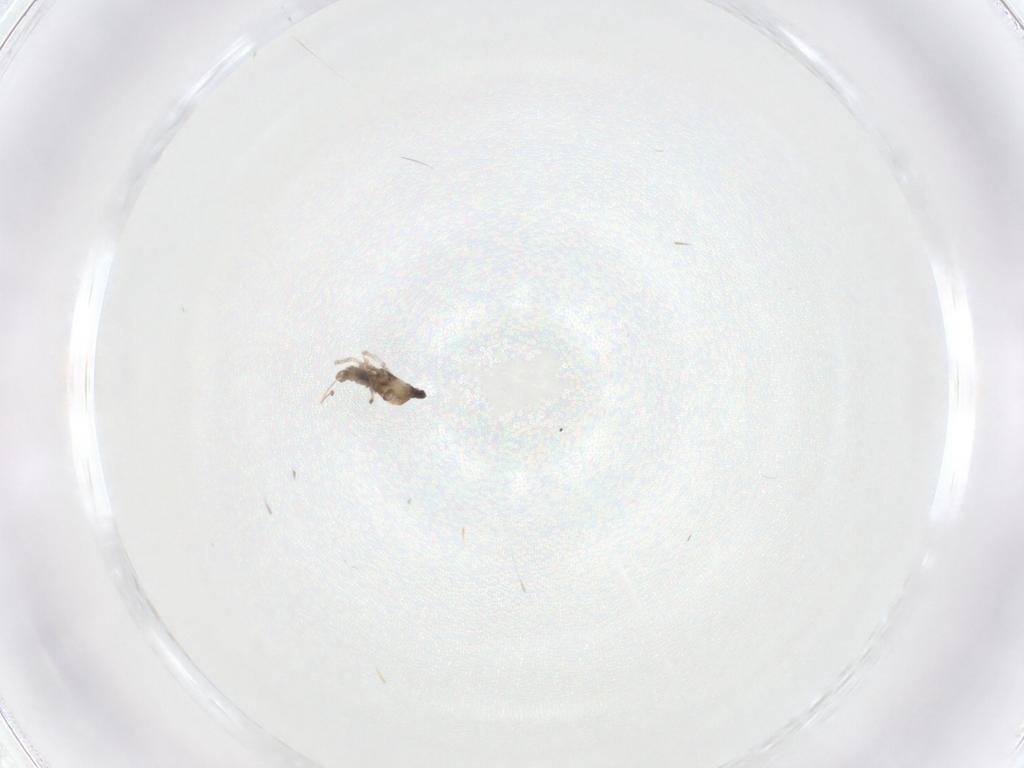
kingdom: Animalia
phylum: Arthropoda
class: Insecta
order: Diptera
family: Cecidomyiidae
